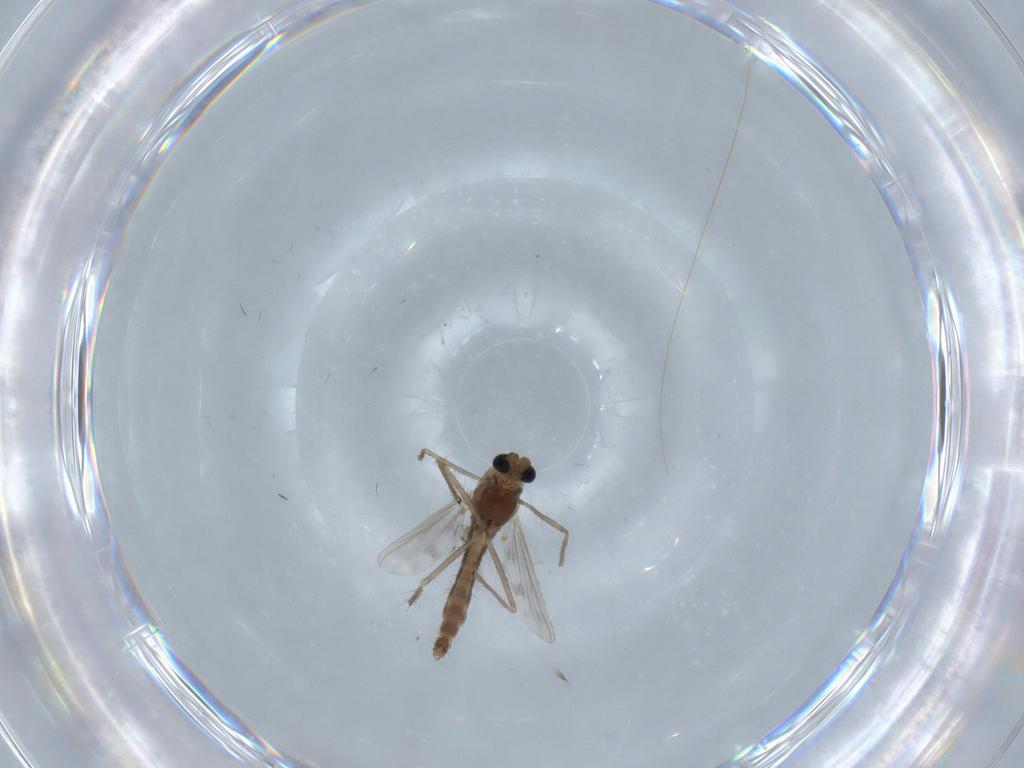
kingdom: Animalia
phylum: Arthropoda
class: Insecta
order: Diptera
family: Chironomidae
